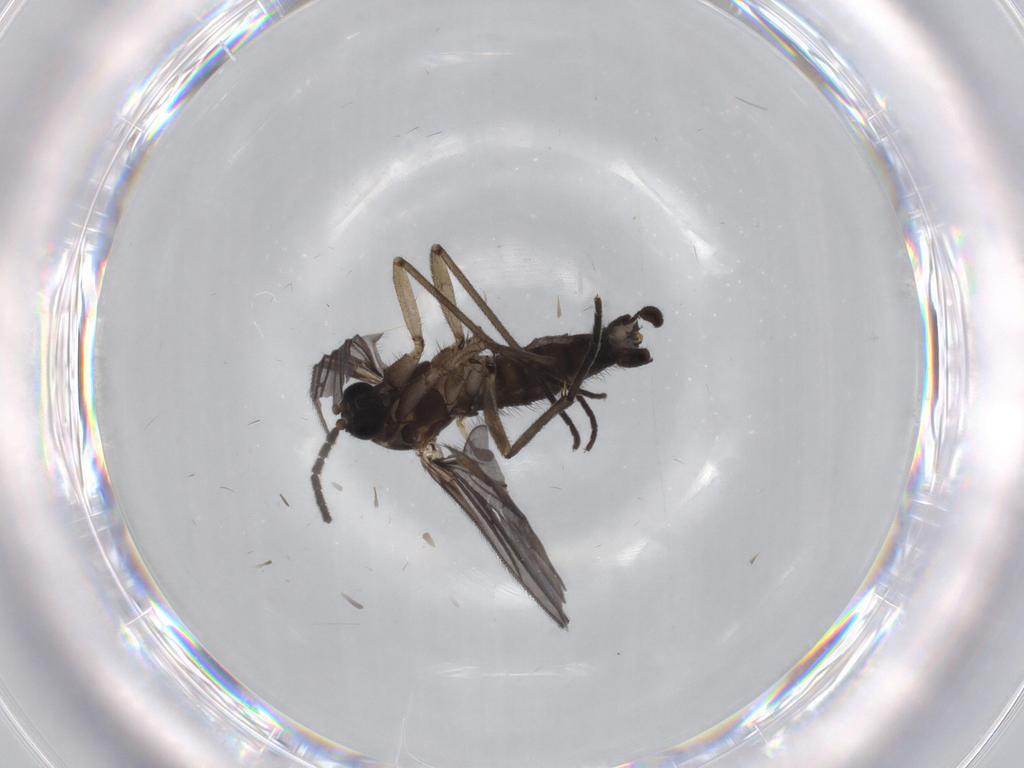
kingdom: Animalia
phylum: Arthropoda
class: Insecta
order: Diptera
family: Sciaridae
